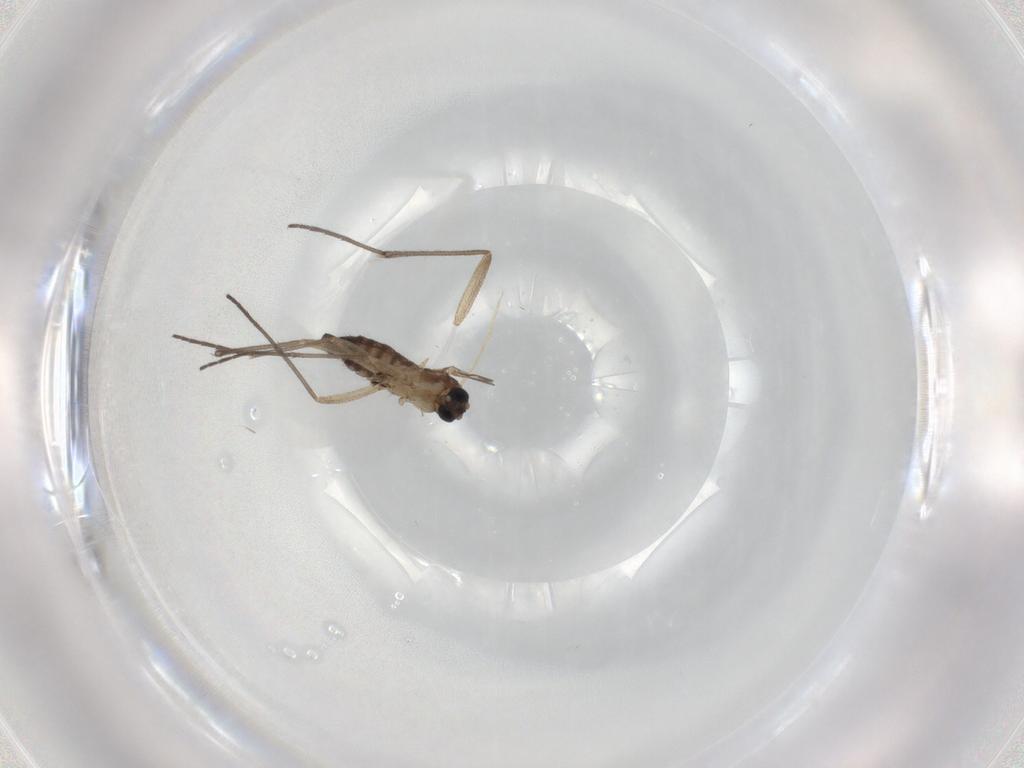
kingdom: Animalia
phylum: Arthropoda
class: Insecta
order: Diptera
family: Sciaridae
